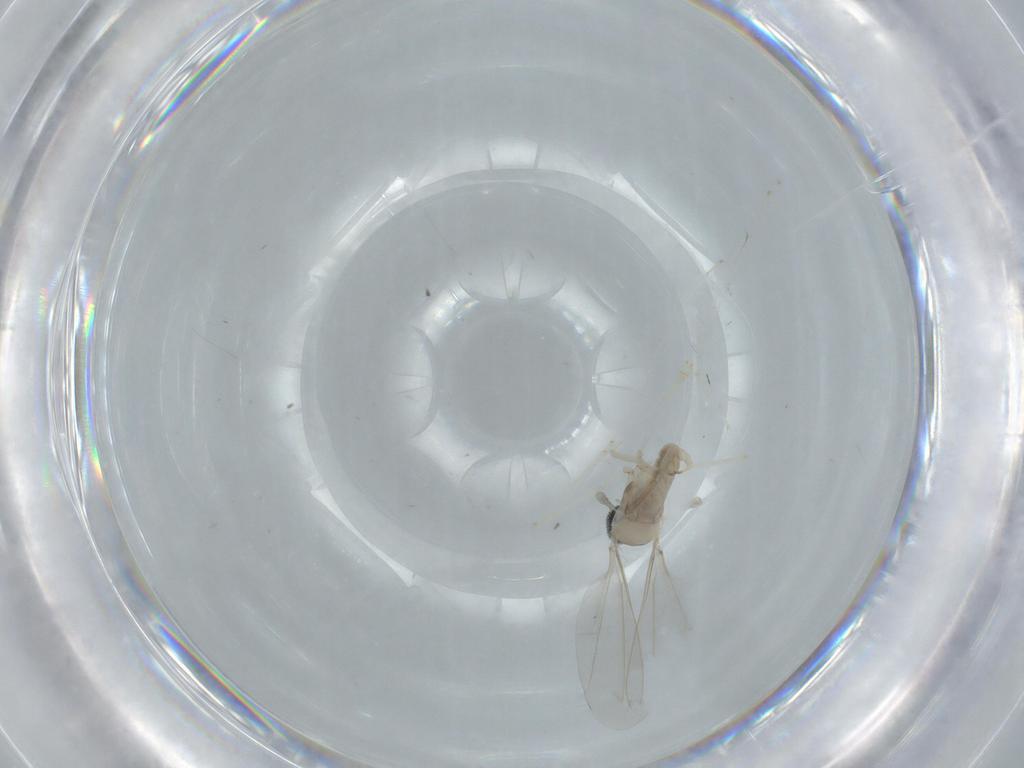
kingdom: Animalia
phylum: Arthropoda
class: Insecta
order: Diptera
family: Cecidomyiidae
